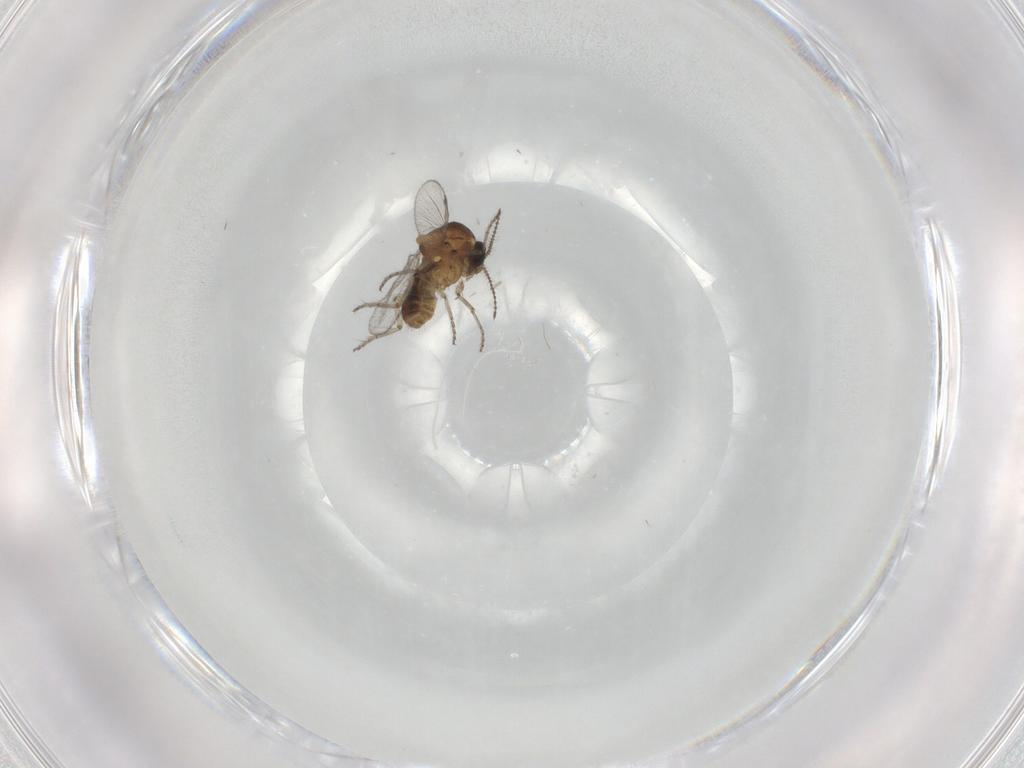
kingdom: Animalia
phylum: Arthropoda
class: Insecta
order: Diptera
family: Ceratopogonidae
